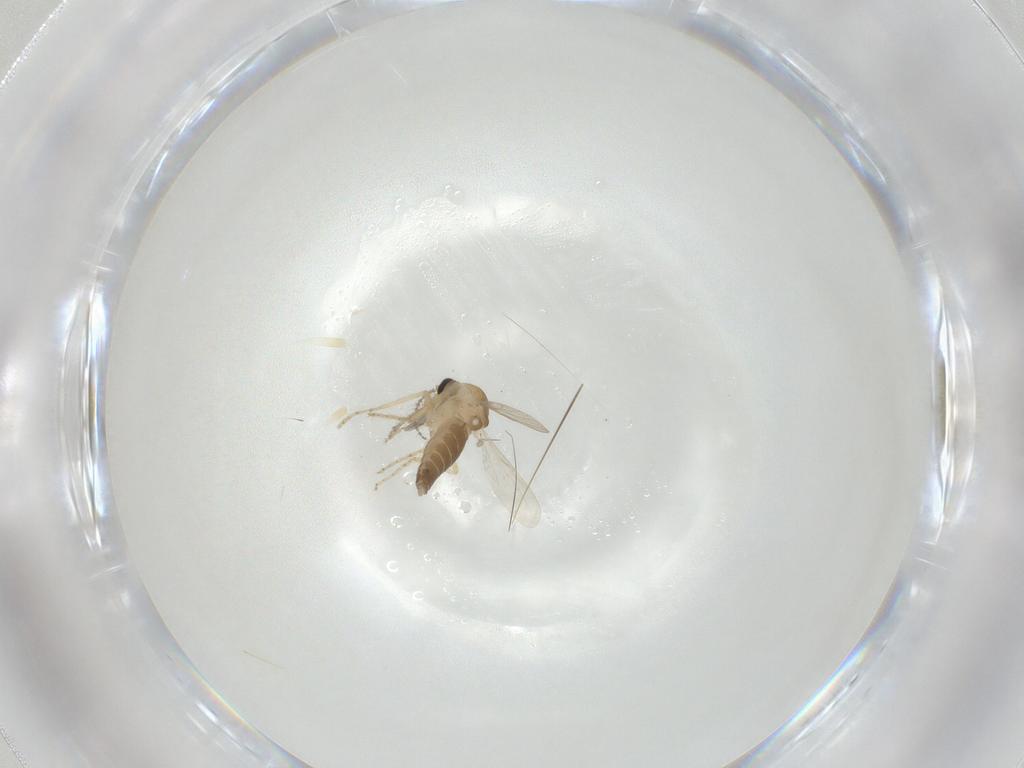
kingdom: Animalia
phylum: Arthropoda
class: Insecta
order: Diptera
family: Ceratopogonidae
